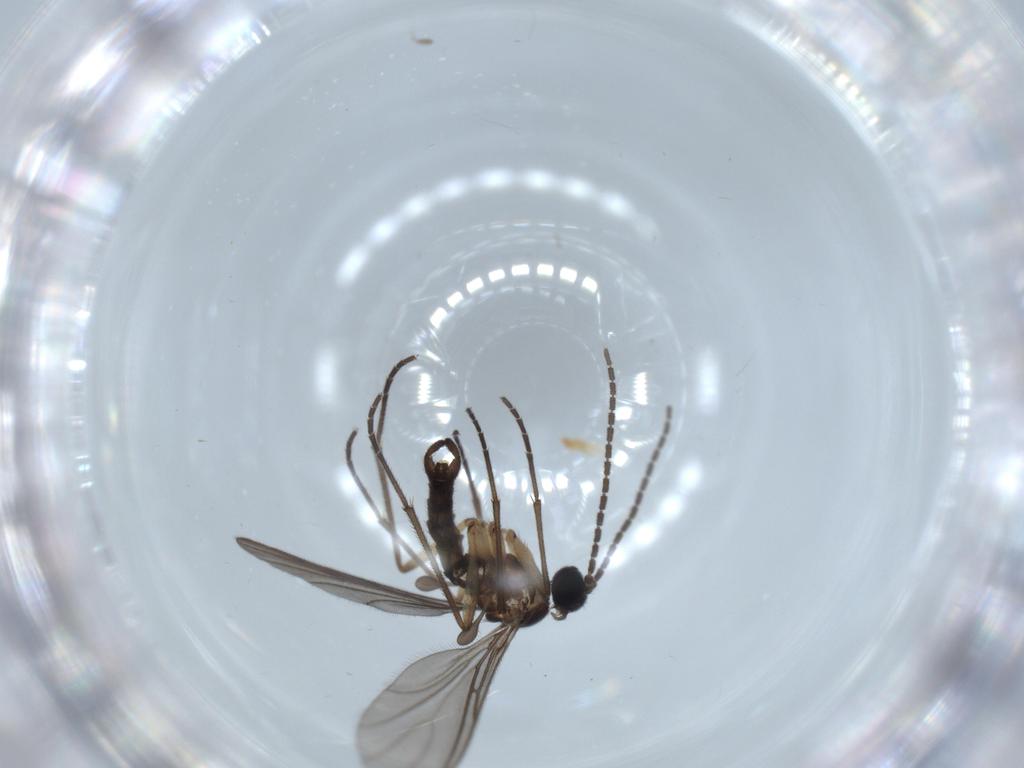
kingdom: Animalia
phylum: Arthropoda
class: Insecta
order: Diptera
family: Sciaridae
